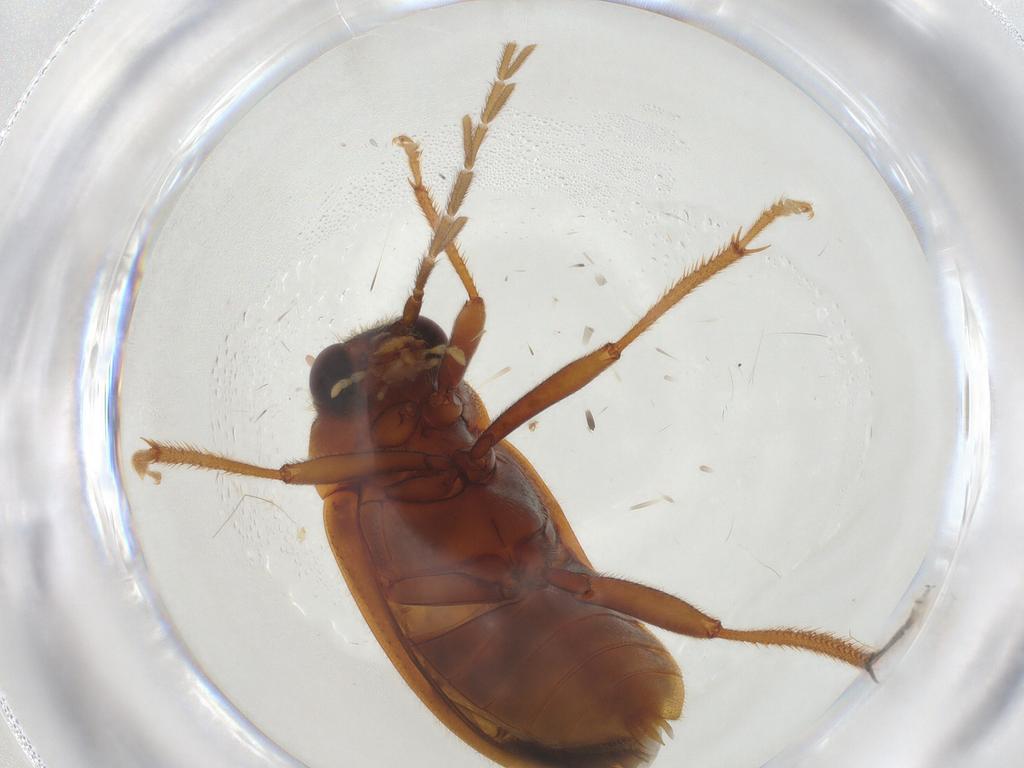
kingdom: Animalia
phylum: Arthropoda
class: Insecta
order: Coleoptera
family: Ptilodactylidae
